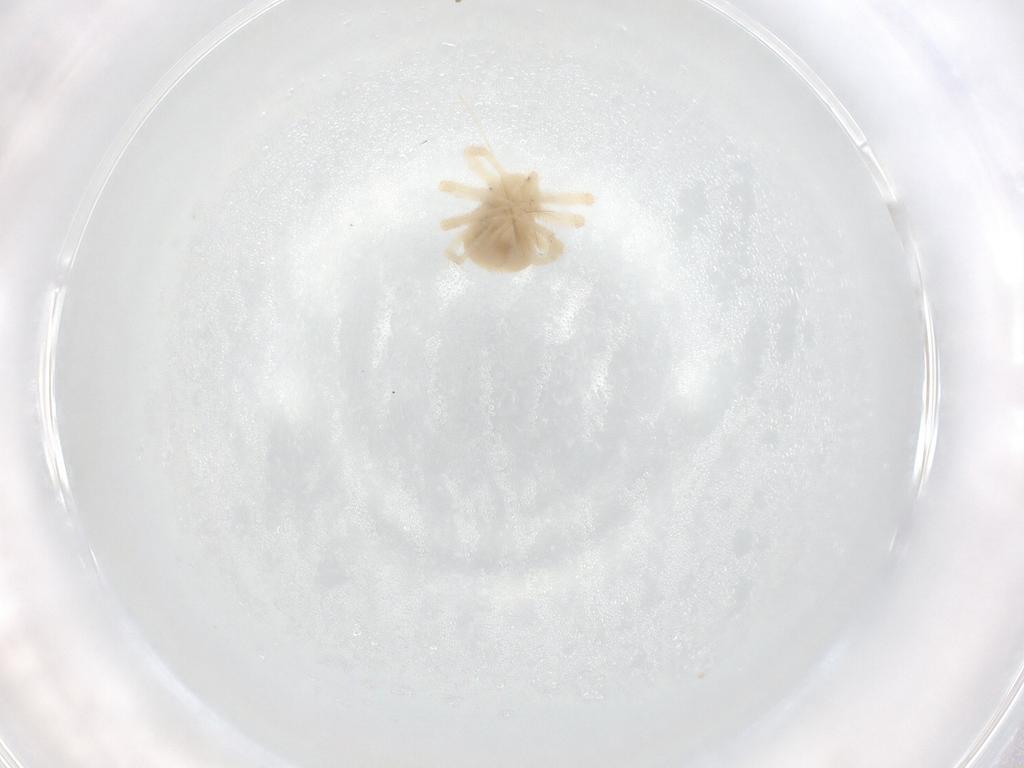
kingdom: Animalia
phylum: Arthropoda
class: Arachnida
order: Trombidiformes
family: Anystidae
